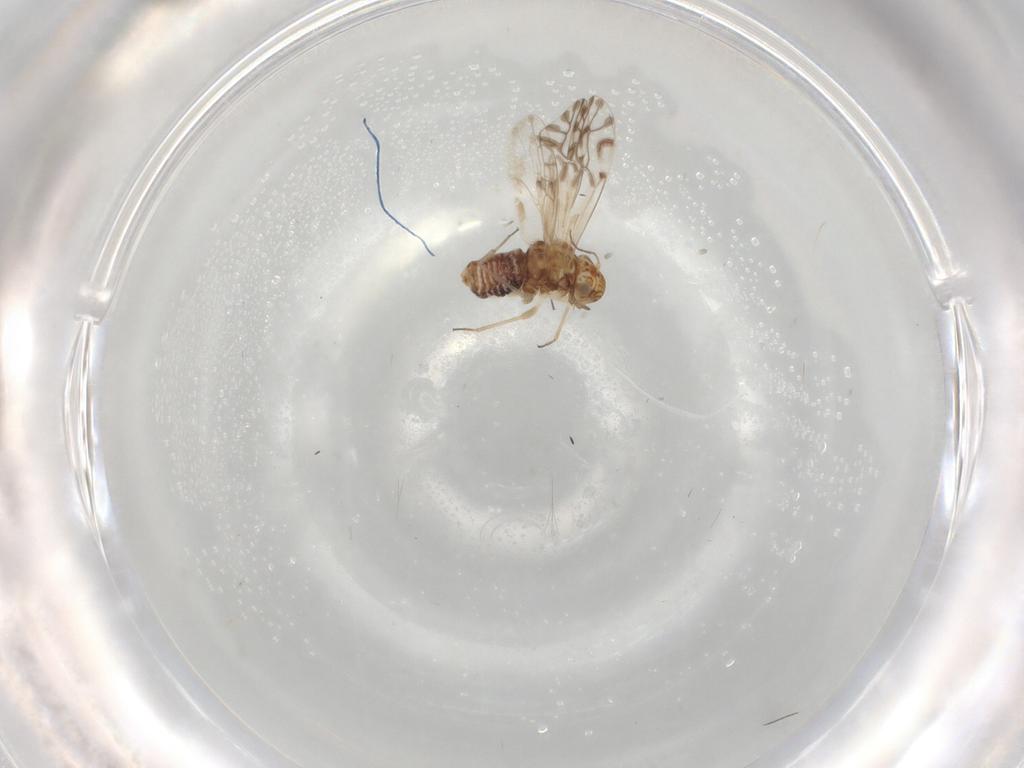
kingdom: Animalia
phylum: Arthropoda
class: Insecta
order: Psocodea
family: Lachesillidae
